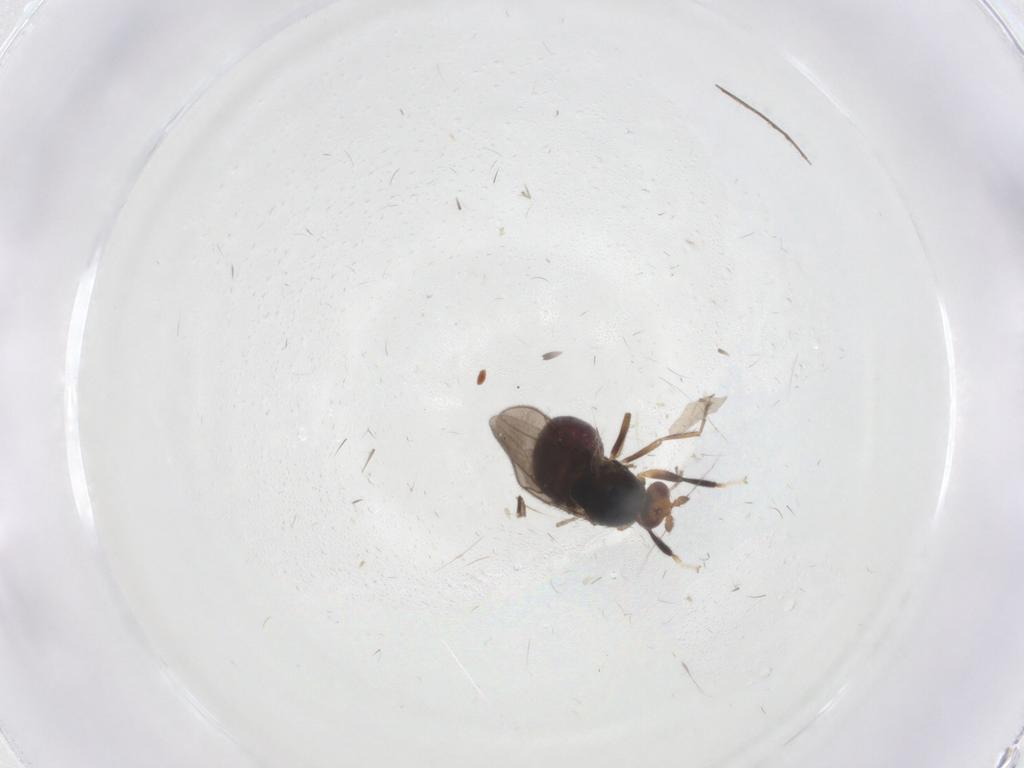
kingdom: Animalia
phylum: Arthropoda
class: Insecta
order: Diptera
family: Sphaeroceridae
